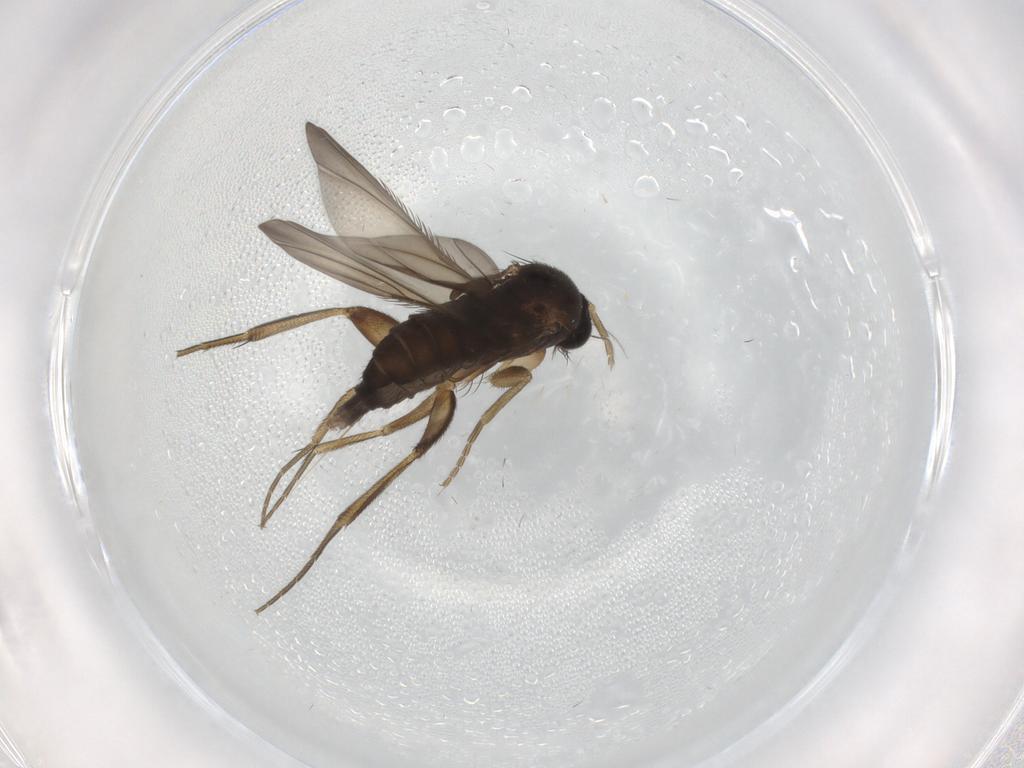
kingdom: Animalia
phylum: Arthropoda
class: Insecta
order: Diptera
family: Phoridae
